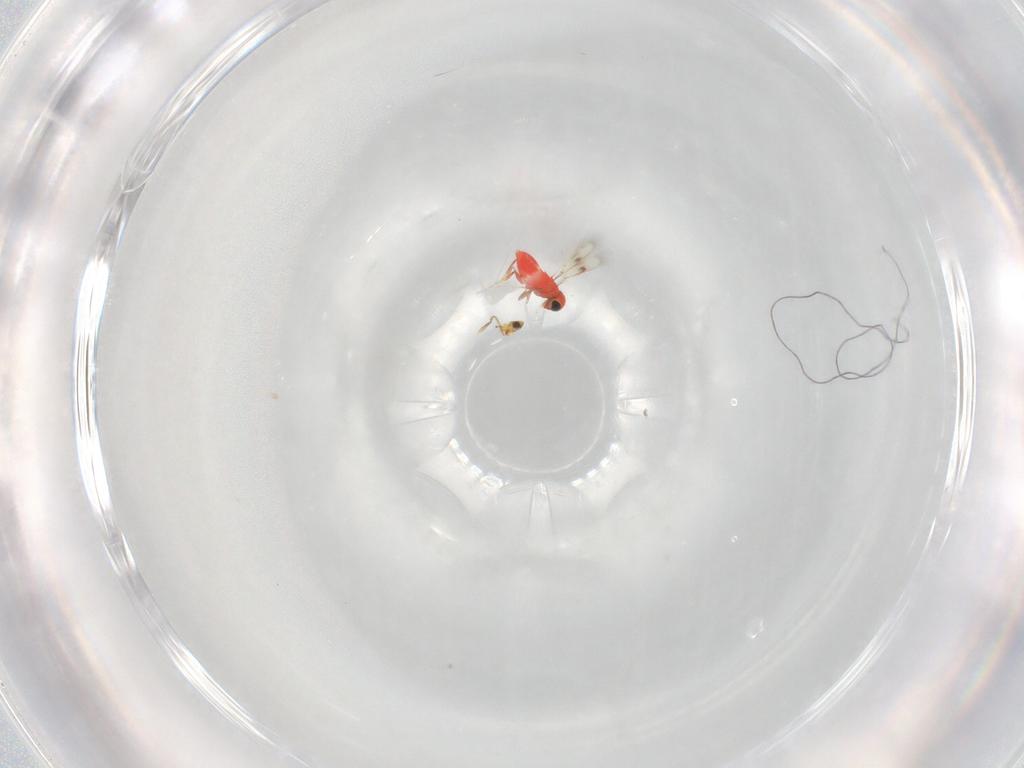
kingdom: Animalia
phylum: Arthropoda
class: Insecta
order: Hymenoptera
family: Aphelinidae
